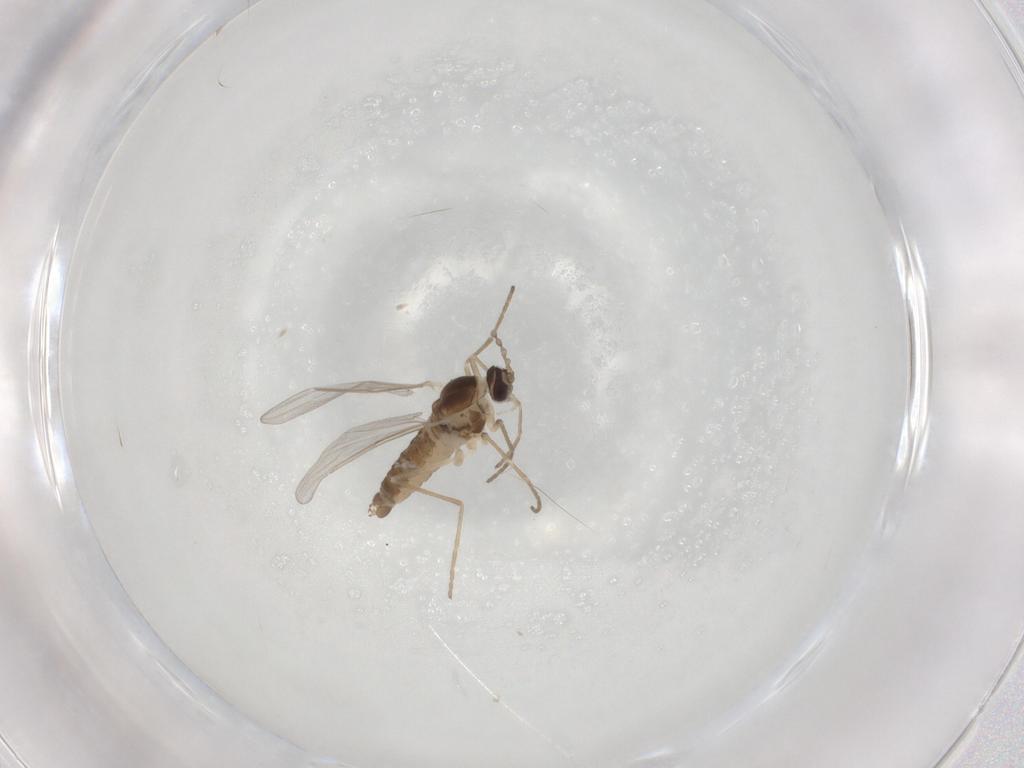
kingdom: Animalia
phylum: Arthropoda
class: Insecta
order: Diptera
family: Cecidomyiidae
